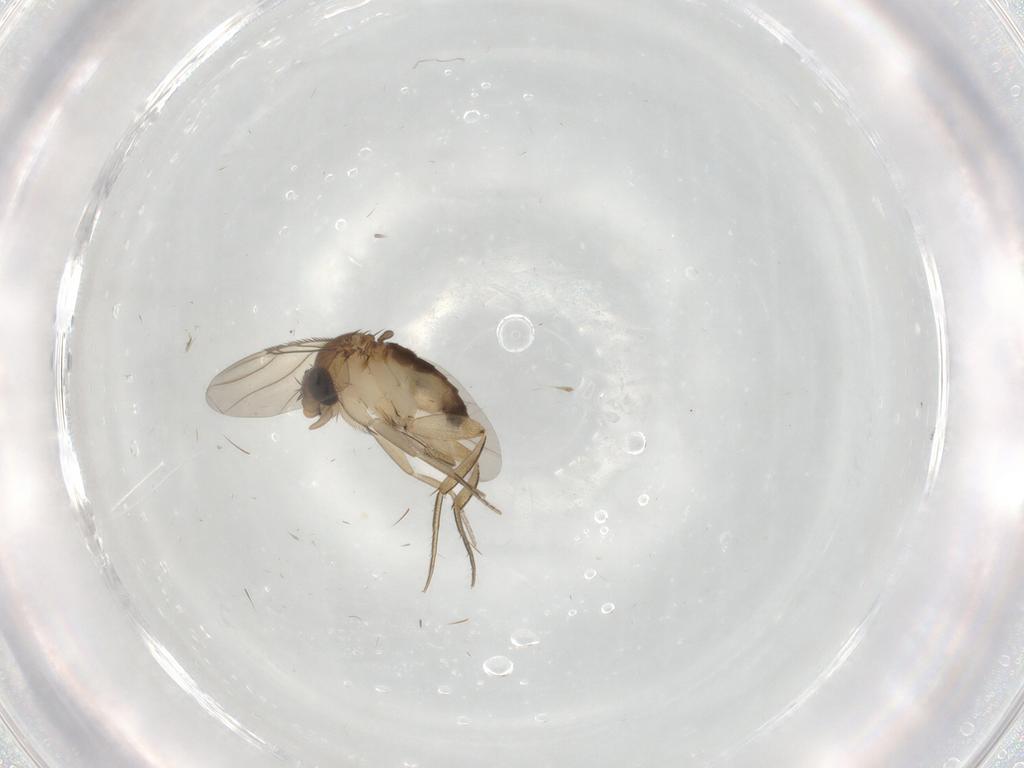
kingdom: Animalia
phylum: Arthropoda
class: Insecta
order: Diptera
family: Phoridae
